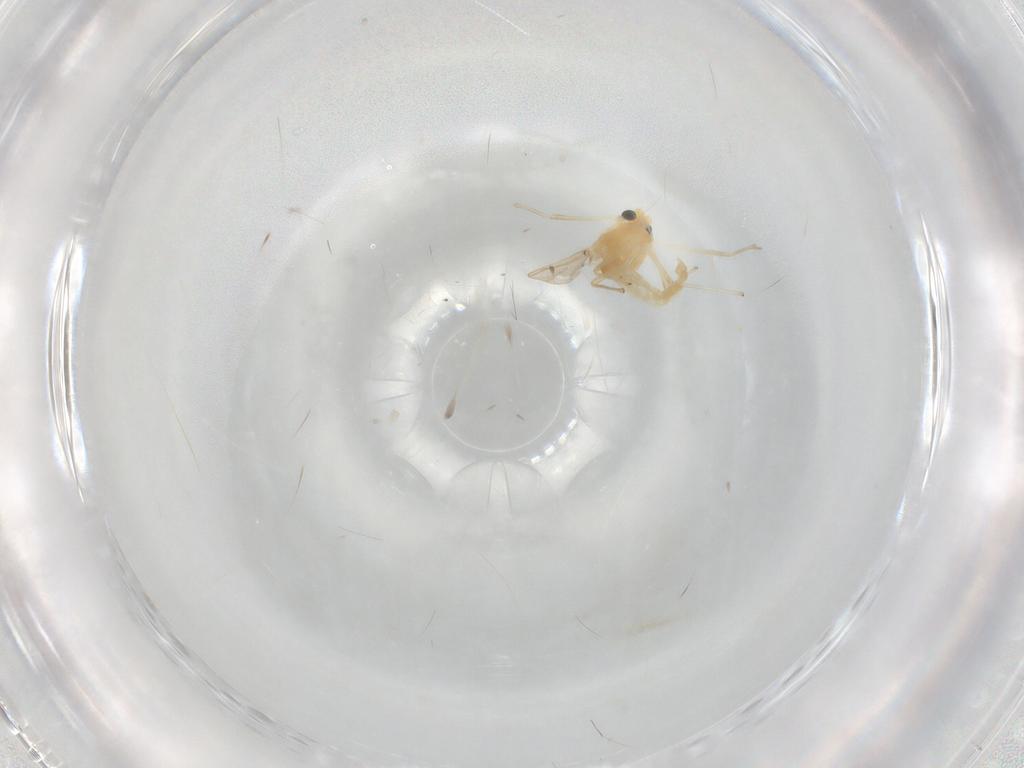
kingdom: Animalia
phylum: Arthropoda
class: Insecta
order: Diptera
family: Chironomidae
